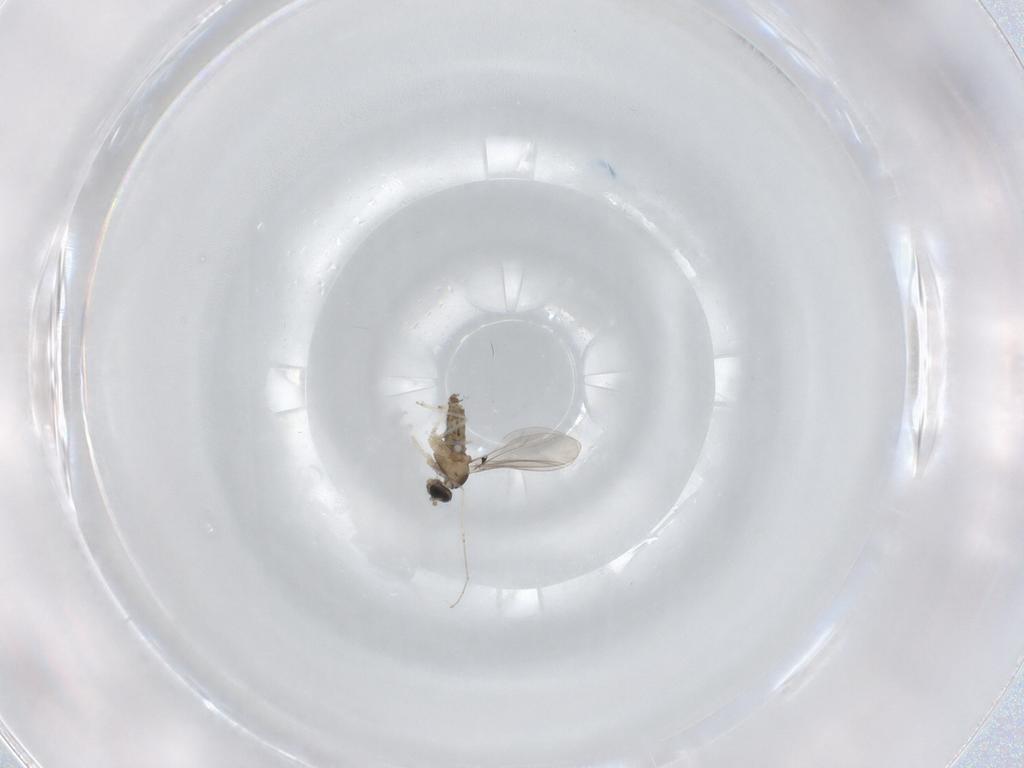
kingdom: Animalia
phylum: Arthropoda
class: Insecta
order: Diptera
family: Cecidomyiidae
